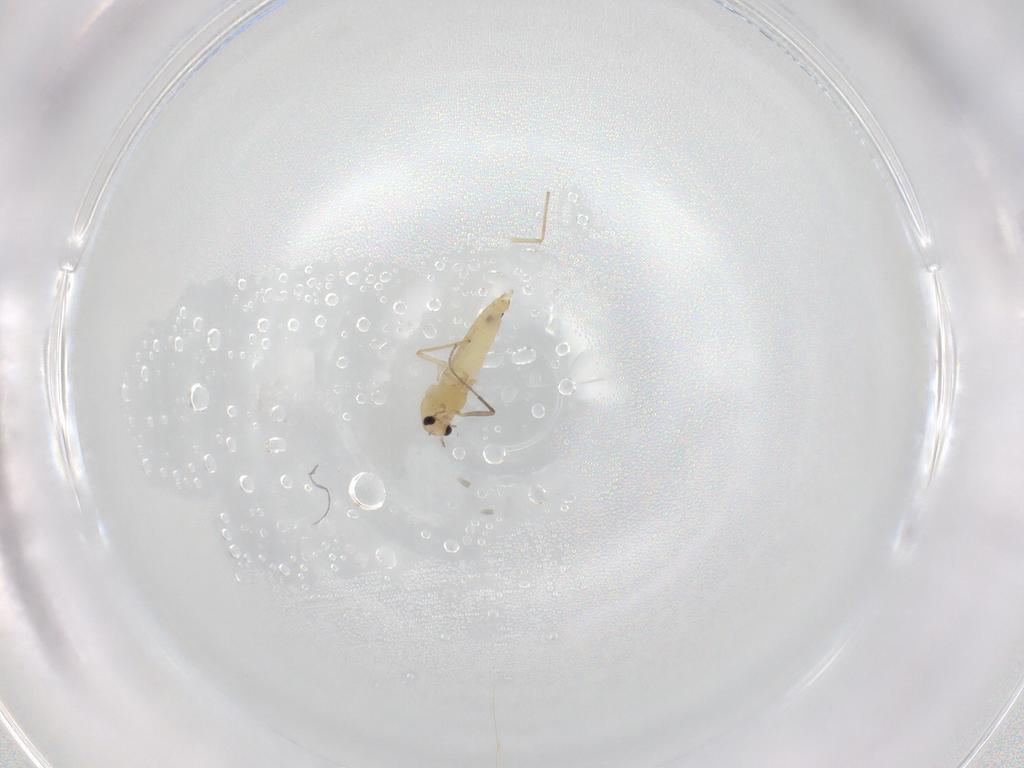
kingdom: Animalia
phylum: Arthropoda
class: Insecta
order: Diptera
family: Chironomidae
